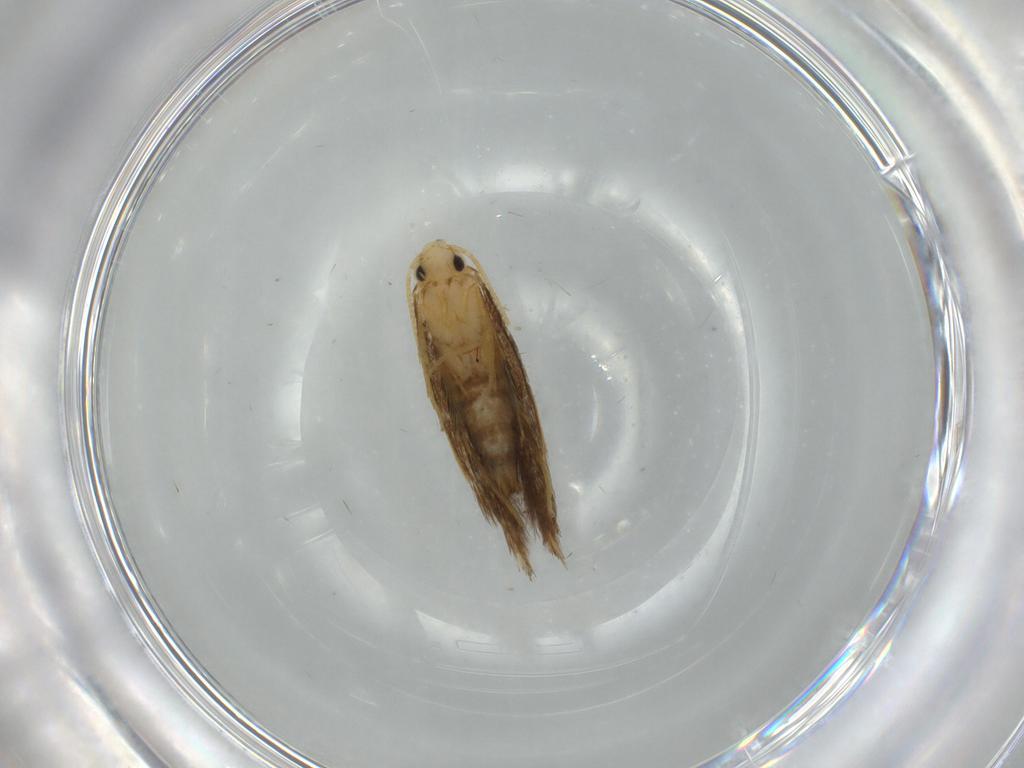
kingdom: Animalia
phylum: Arthropoda
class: Insecta
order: Lepidoptera
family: Tineidae
